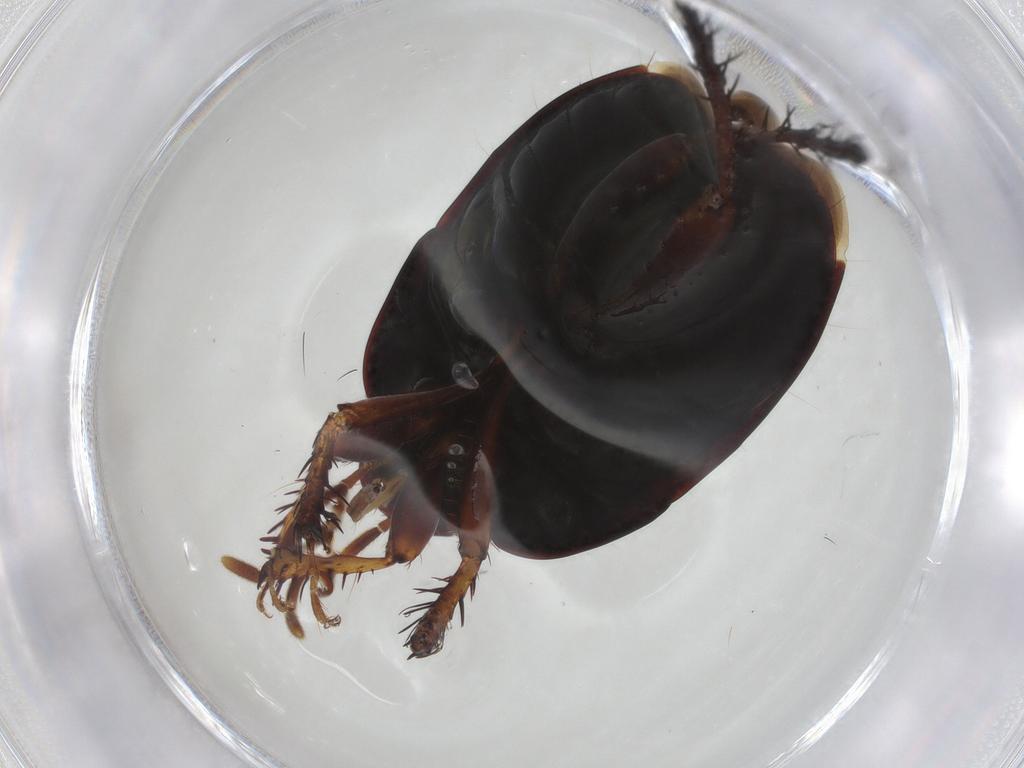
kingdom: Animalia
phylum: Arthropoda
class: Insecta
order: Hemiptera
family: Cydnidae
